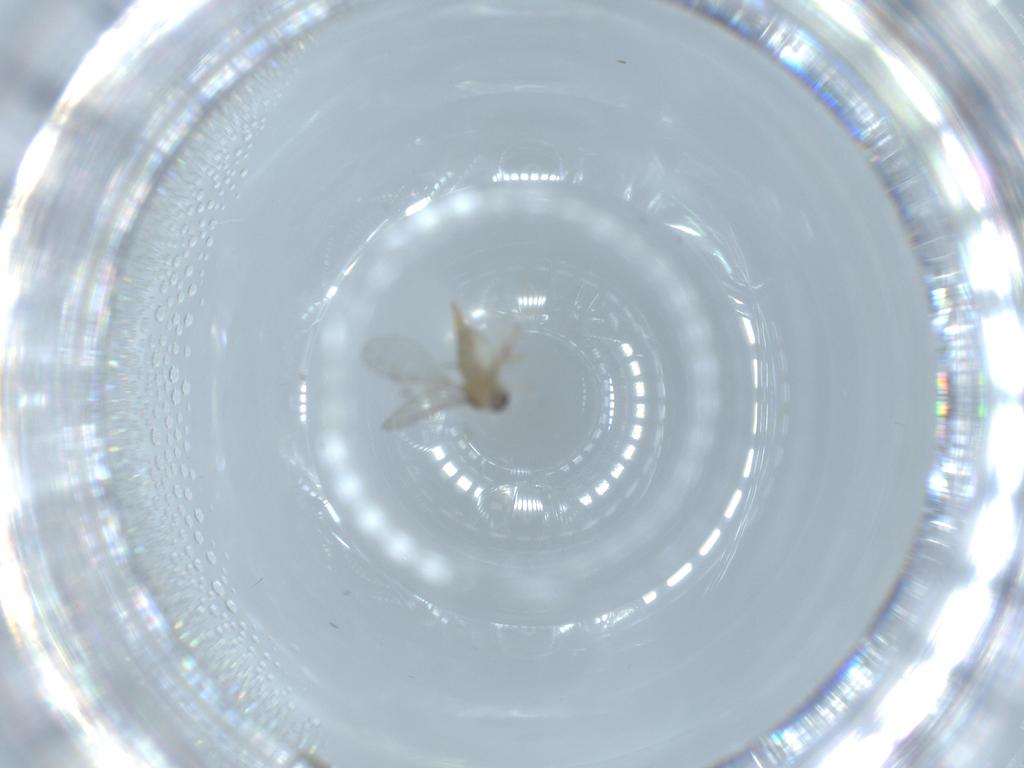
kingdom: Animalia
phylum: Arthropoda
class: Insecta
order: Diptera
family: Cecidomyiidae
